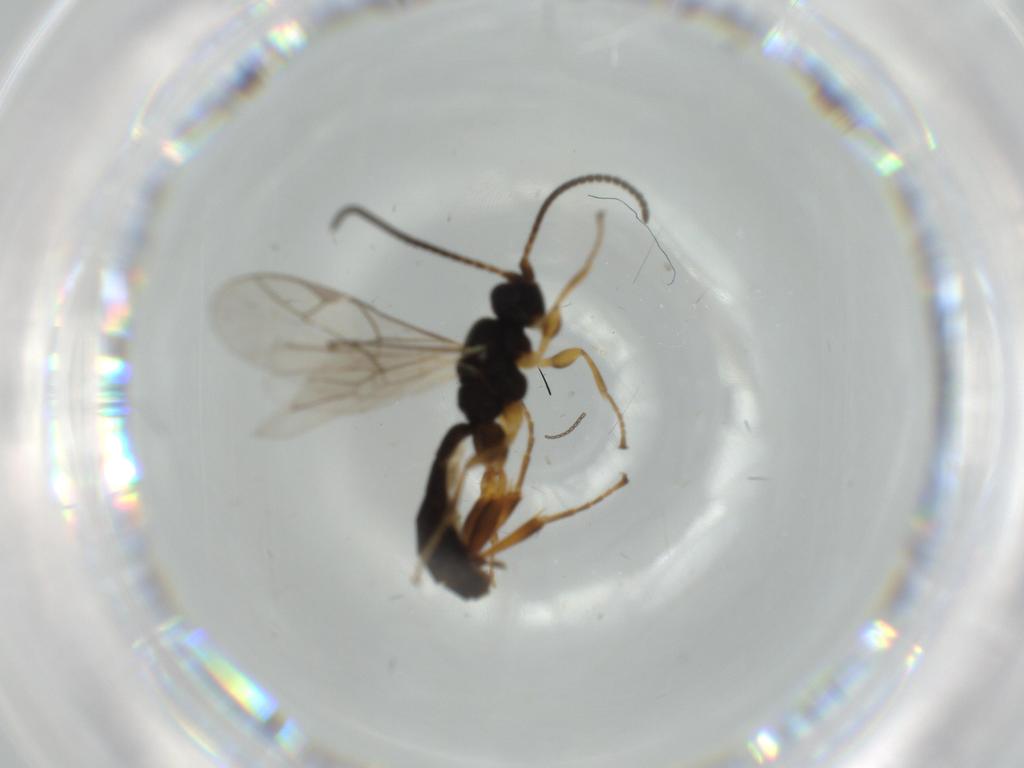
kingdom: Animalia
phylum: Arthropoda
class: Insecta
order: Hymenoptera
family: Ichneumonidae
